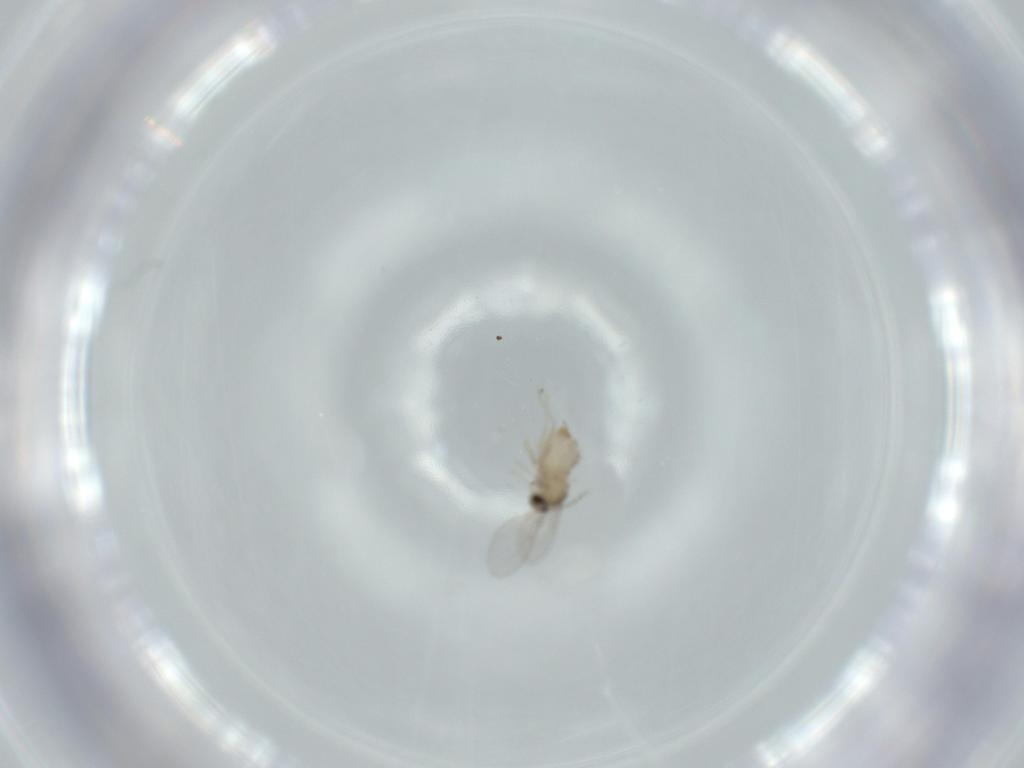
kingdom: Animalia
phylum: Arthropoda
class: Insecta
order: Diptera
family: Cecidomyiidae
